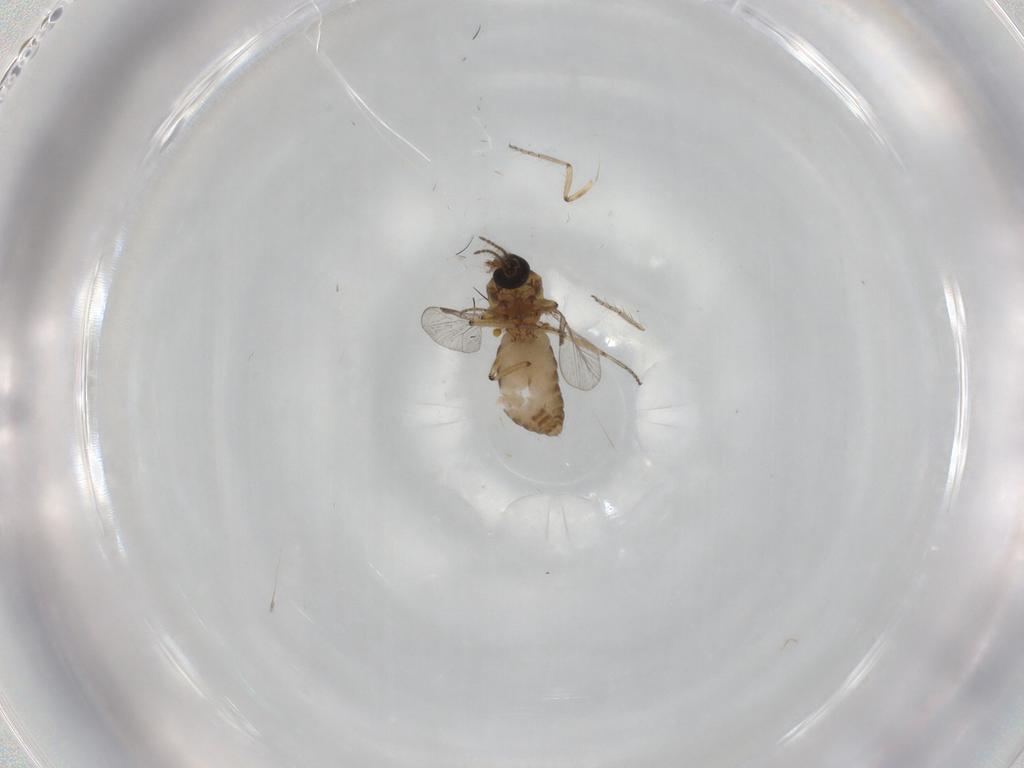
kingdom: Animalia
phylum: Arthropoda
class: Insecta
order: Diptera
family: Ceratopogonidae
